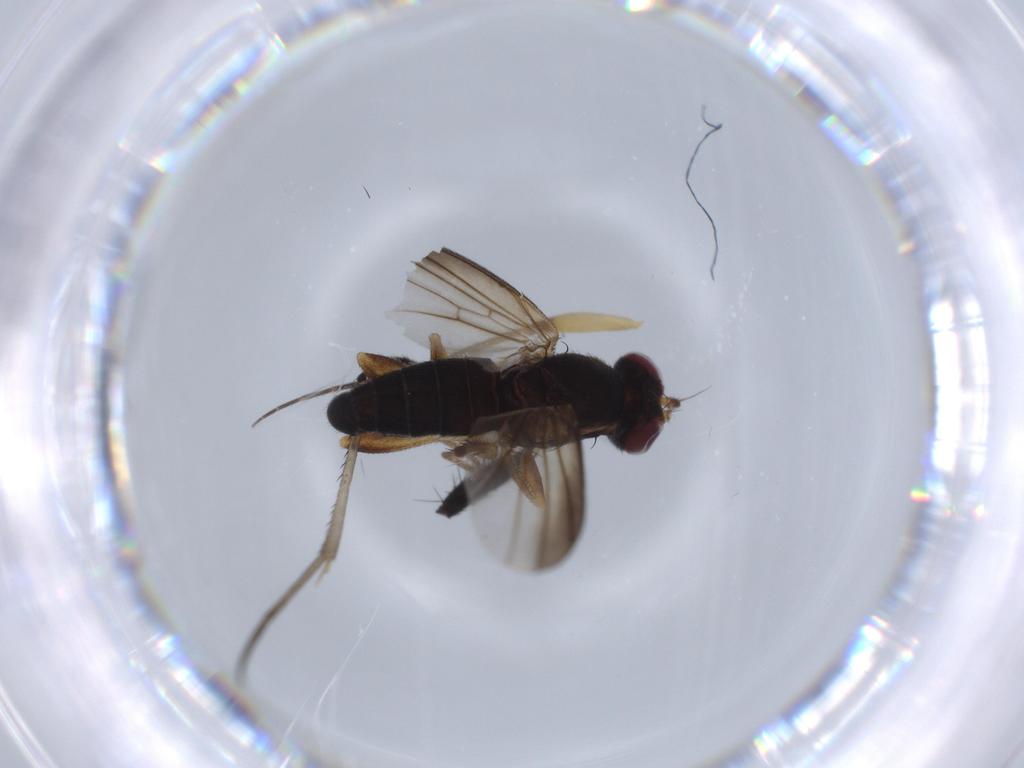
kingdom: Animalia
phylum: Arthropoda
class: Insecta
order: Diptera
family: Clusiidae
